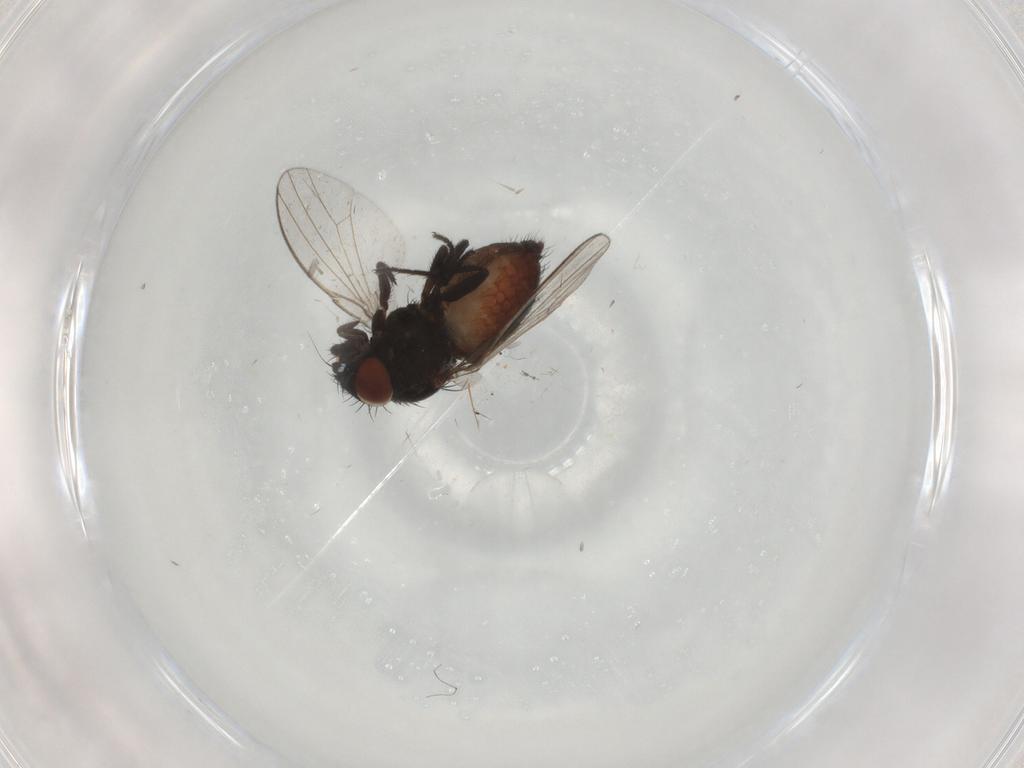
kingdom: Animalia
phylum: Arthropoda
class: Insecta
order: Diptera
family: Milichiidae
